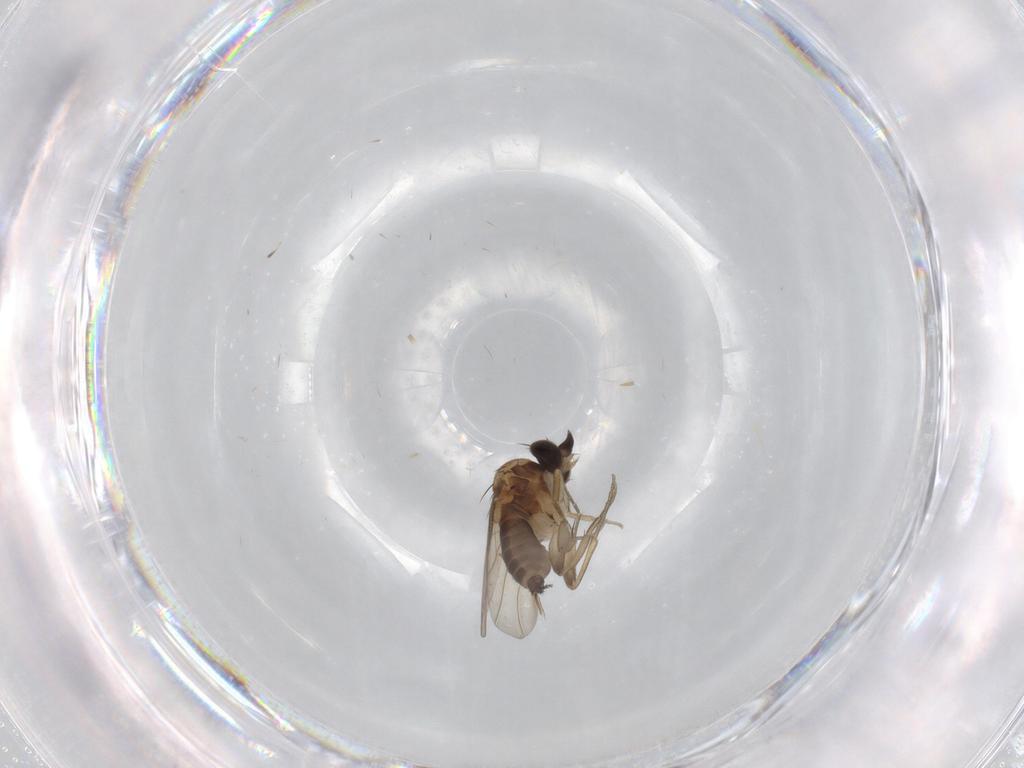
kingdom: Animalia
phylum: Arthropoda
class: Insecta
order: Diptera
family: Phoridae
